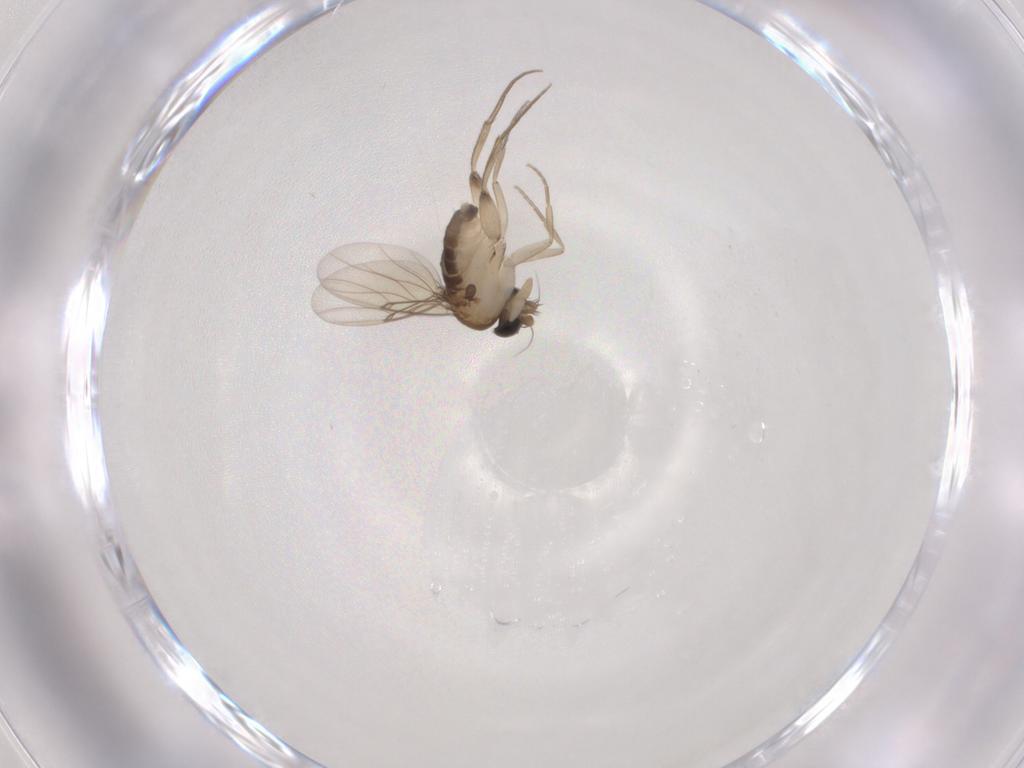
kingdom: Animalia
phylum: Arthropoda
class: Insecta
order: Diptera
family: Phoridae
